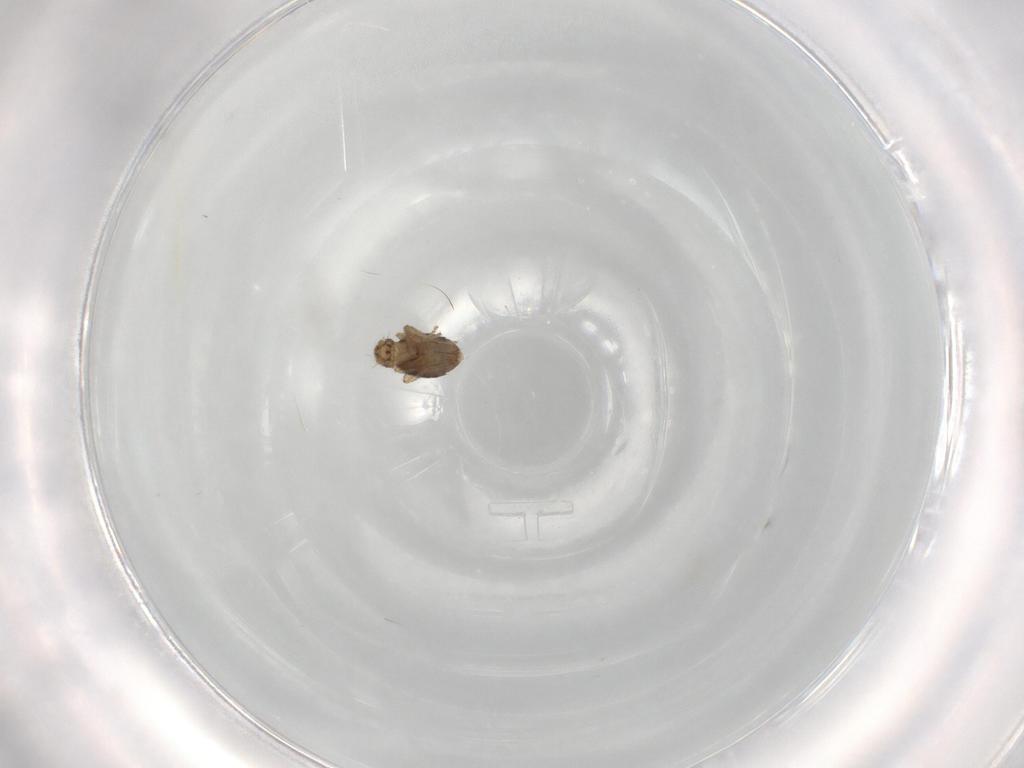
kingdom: Animalia
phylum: Arthropoda
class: Insecta
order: Diptera
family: Phoridae
